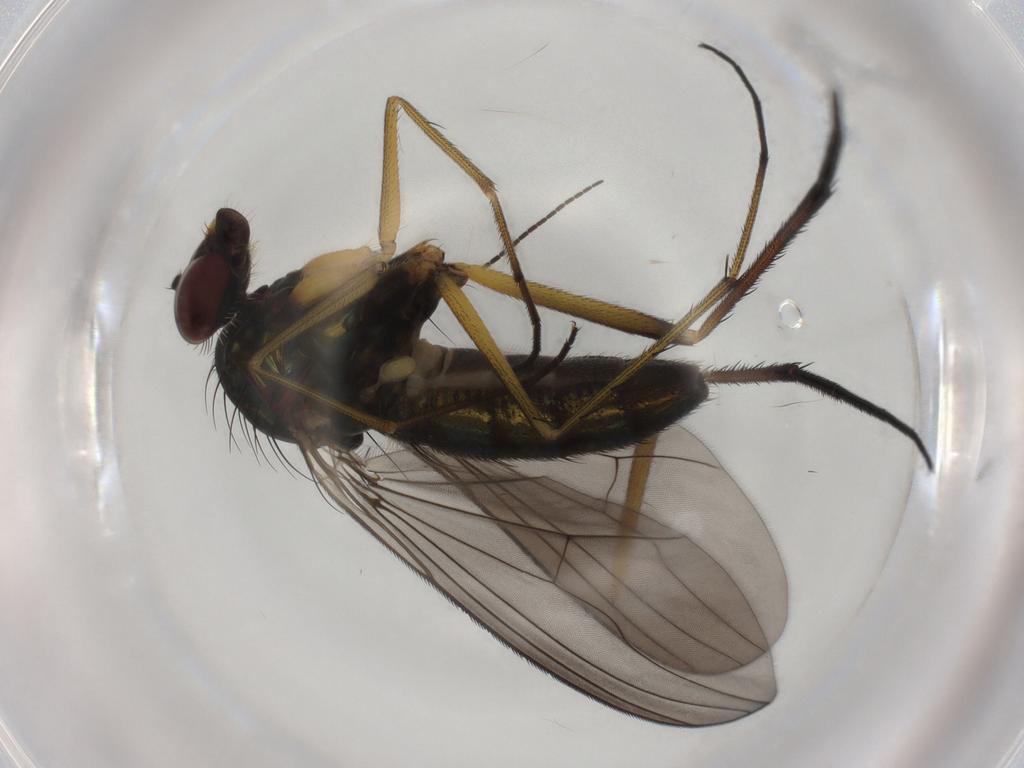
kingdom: Animalia
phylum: Arthropoda
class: Insecta
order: Diptera
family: Dolichopodidae
